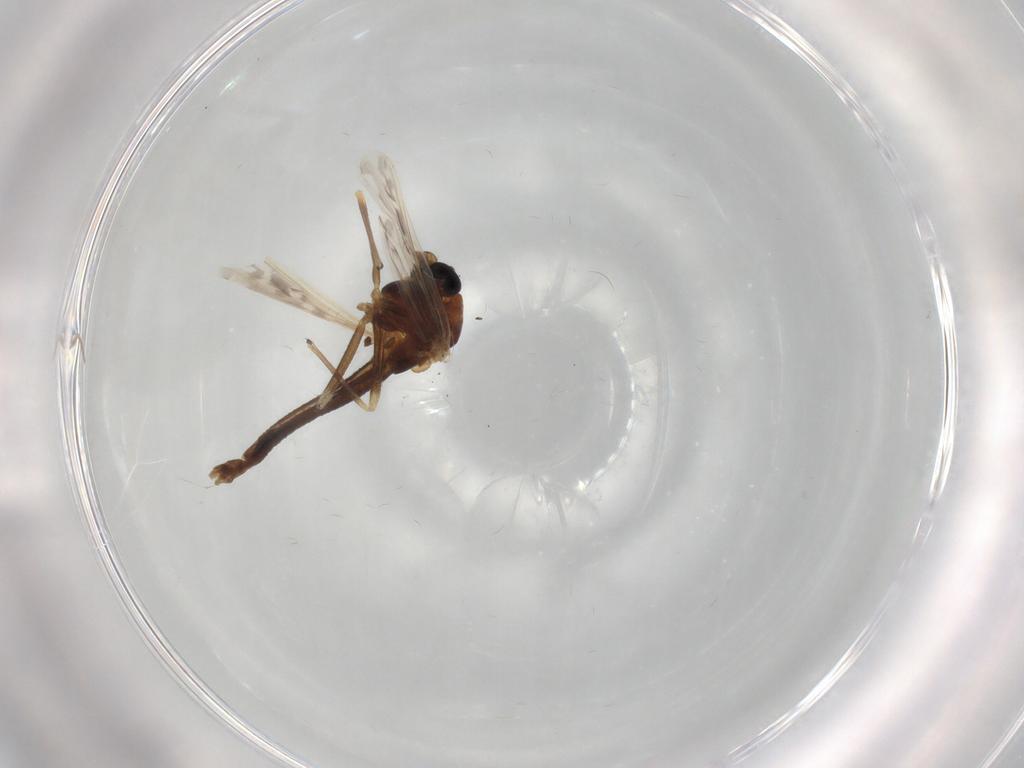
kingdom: Animalia
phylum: Arthropoda
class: Insecta
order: Diptera
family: Chironomidae
